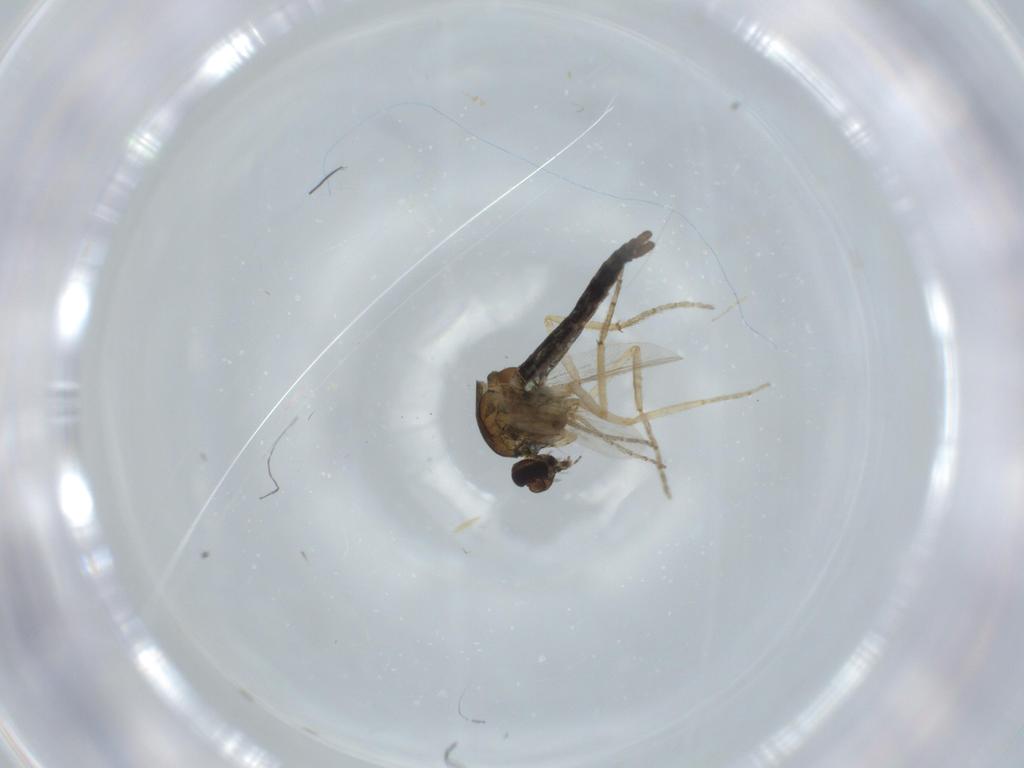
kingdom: Animalia
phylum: Arthropoda
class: Insecta
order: Diptera
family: Ceratopogonidae
